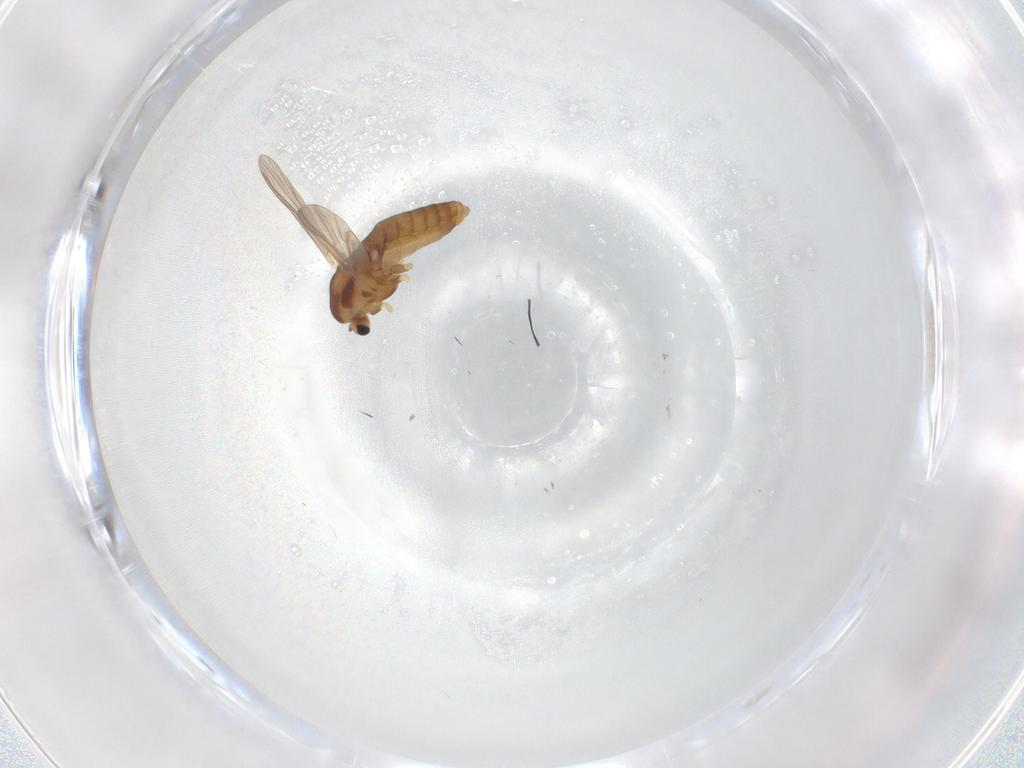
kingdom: Animalia
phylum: Arthropoda
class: Insecta
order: Diptera
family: Chironomidae
